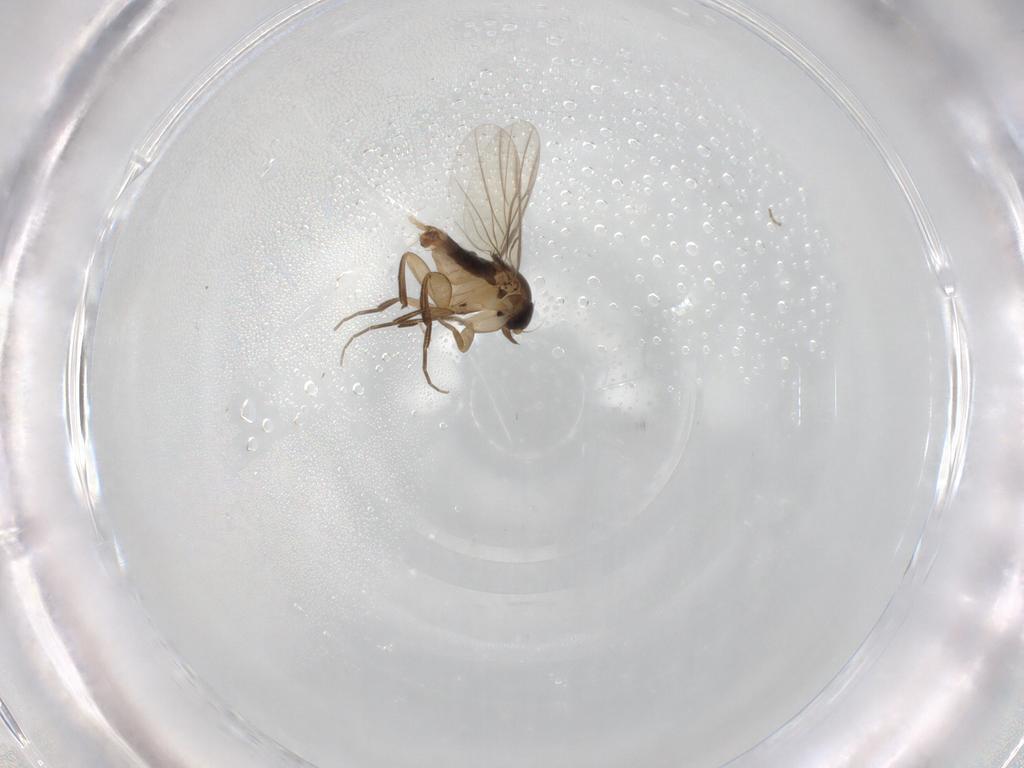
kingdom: Animalia
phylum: Arthropoda
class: Insecta
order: Diptera
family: Phoridae
